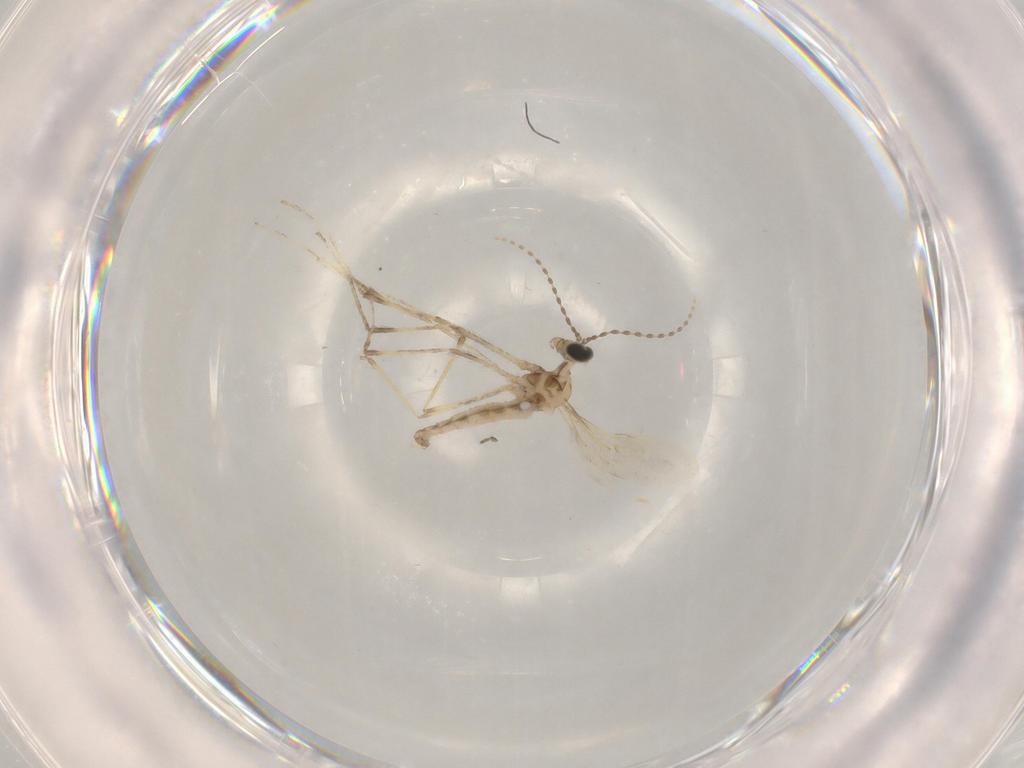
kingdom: Animalia
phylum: Arthropoda
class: Insecta
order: Diptera
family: Cecidomyiidae
